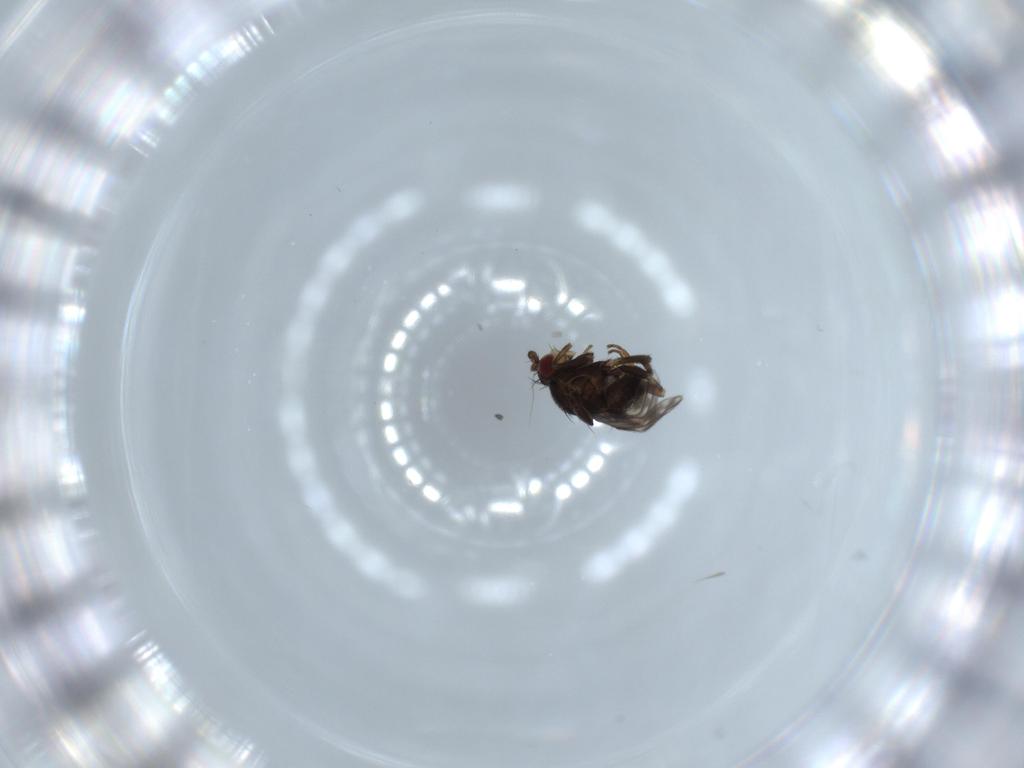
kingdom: Animalia
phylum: Arthropoda
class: Insecta
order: Diptera
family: Sphaeroceridae
